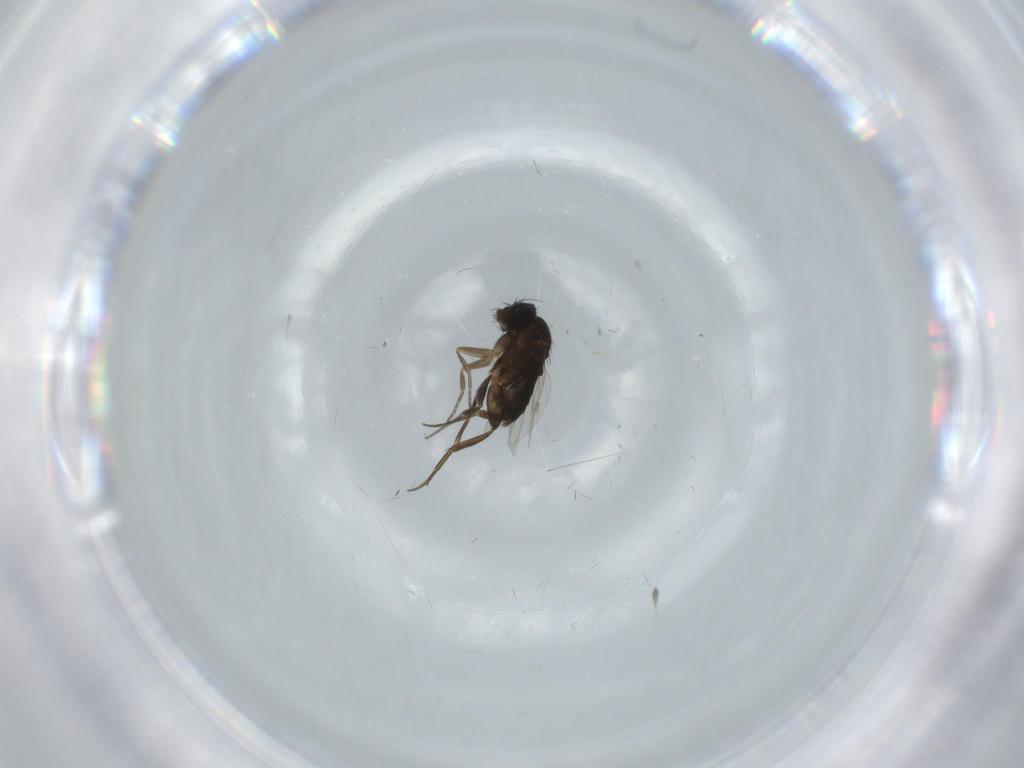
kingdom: Animalia
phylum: Arthropoda
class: Insecta
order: Diptera
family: Phoridae
